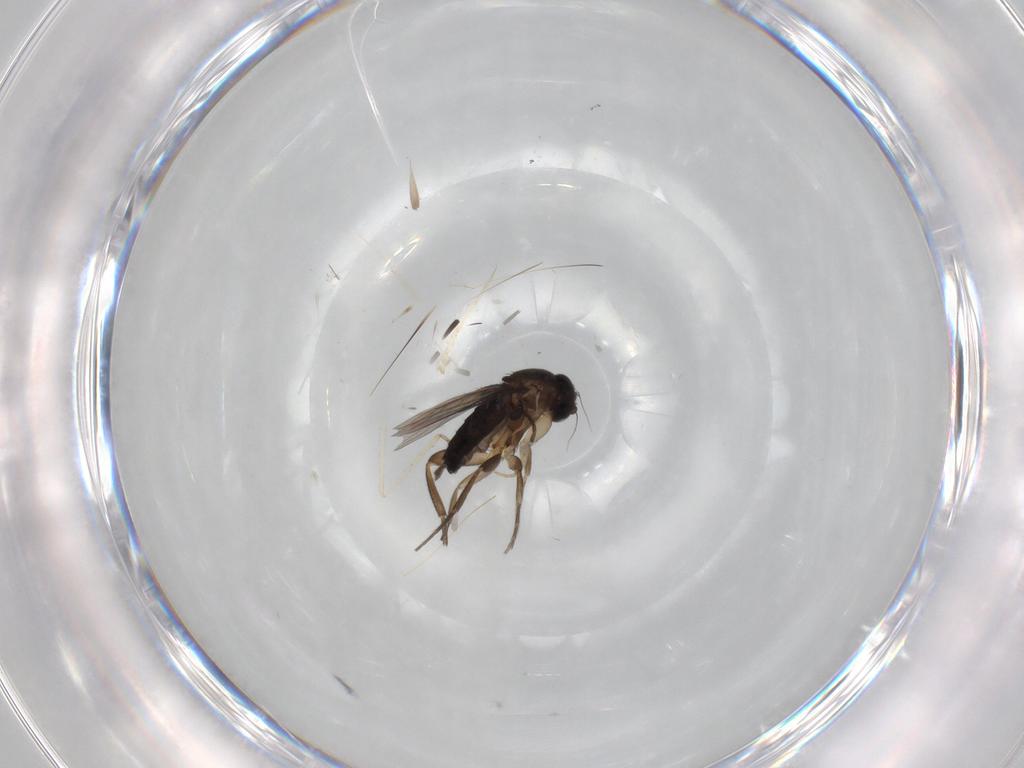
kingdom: Animalia
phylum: Arthropoda
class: Insecta
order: Diptera
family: Phoridae
